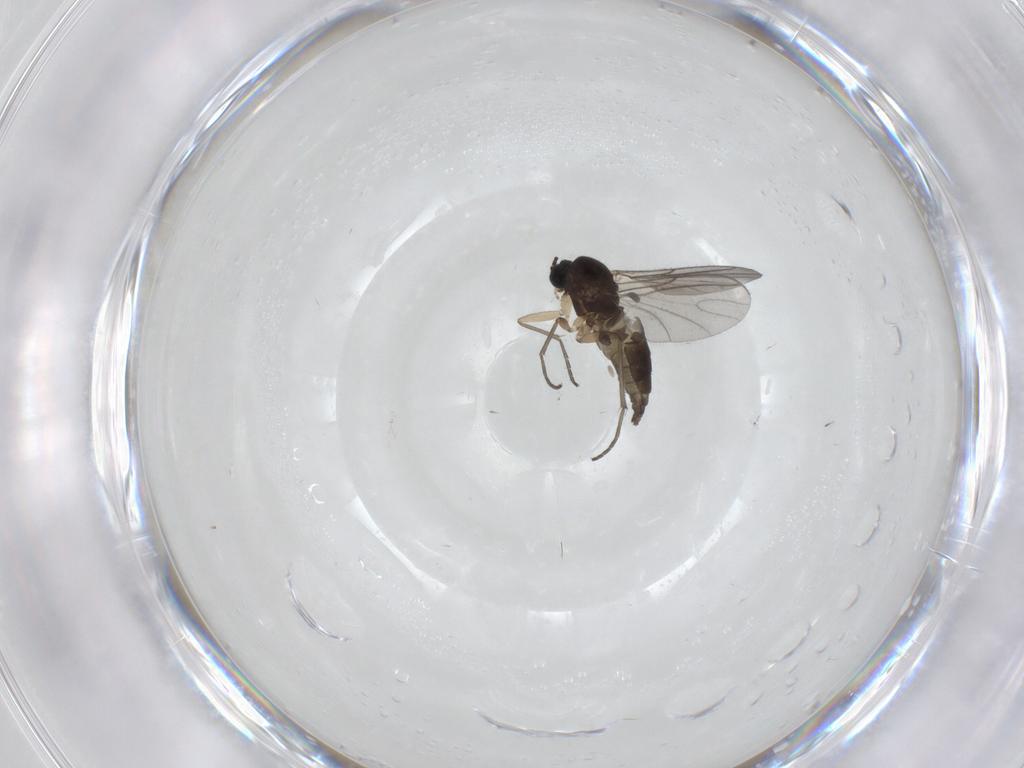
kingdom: Animalia
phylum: Arthropoda
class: Insecta
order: Diptera
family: Sciaridae
